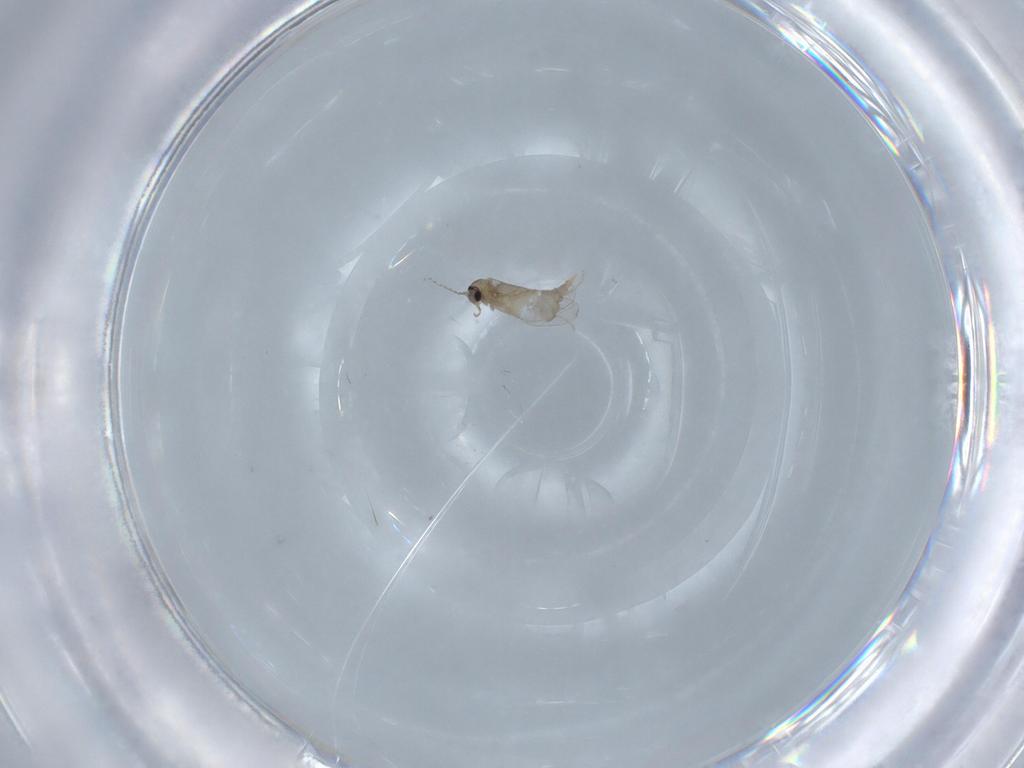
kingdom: Animalia
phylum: Arthropoda
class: Insecta
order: Diptera
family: Cecidomyiidae
